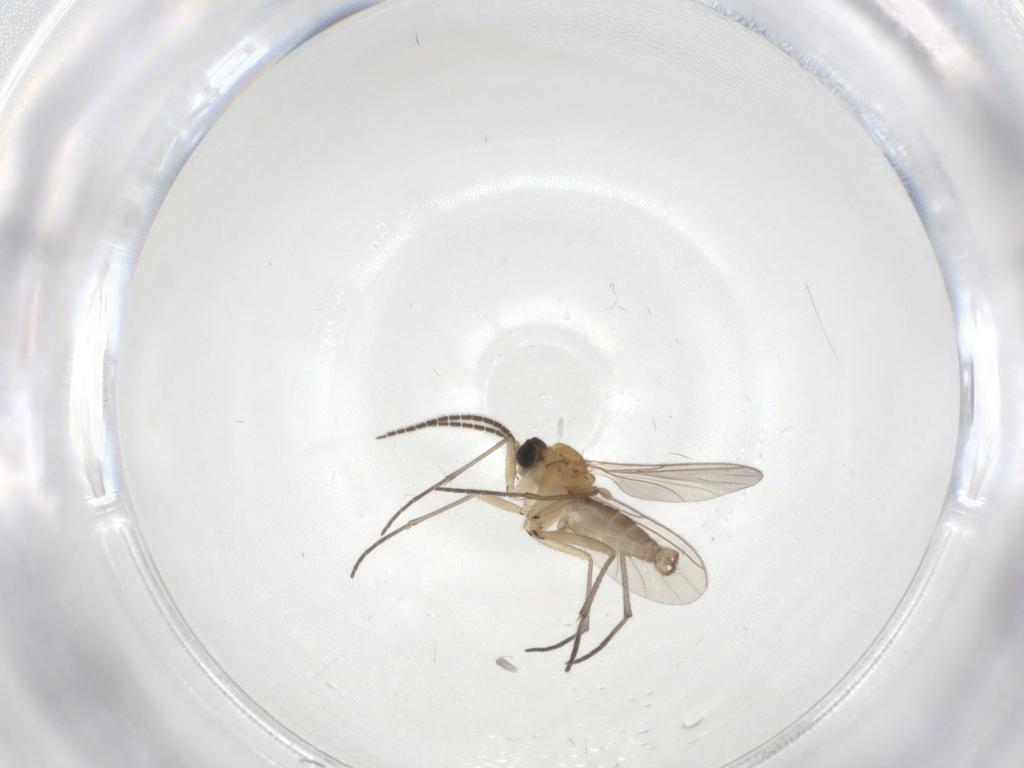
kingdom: Animalia
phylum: Arthropoda
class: Insecta
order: Diptera
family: Sciaridae
